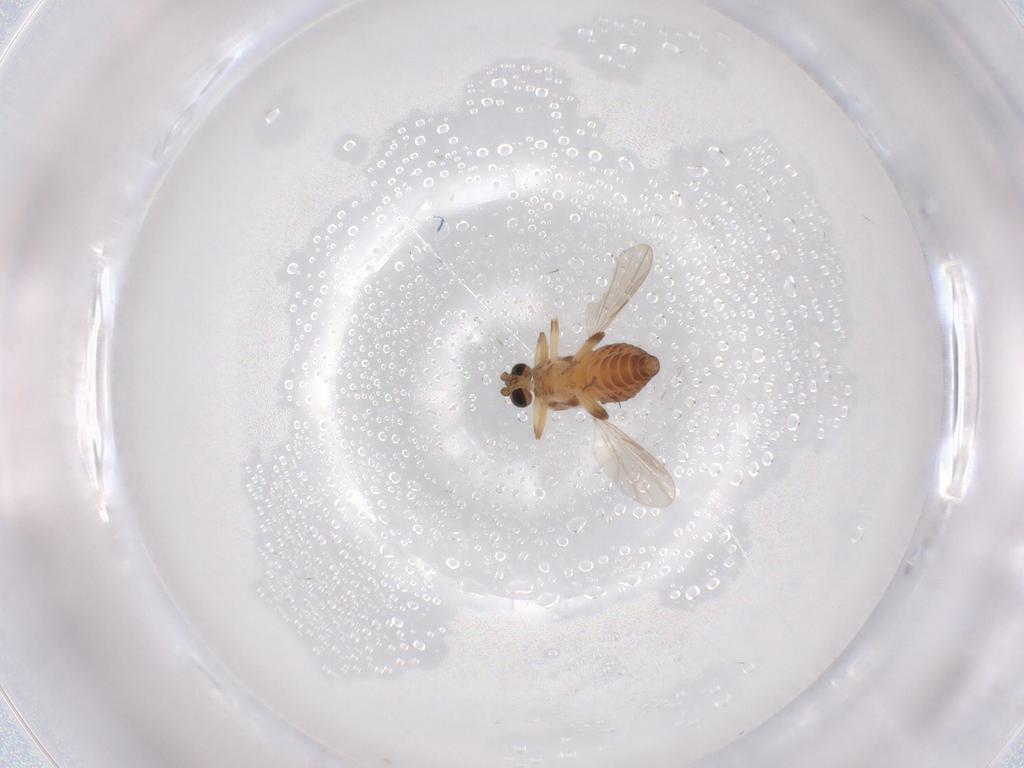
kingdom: Animalia
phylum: Arthropoda
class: Insecta
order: Diptera
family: Ceratopogonidae
